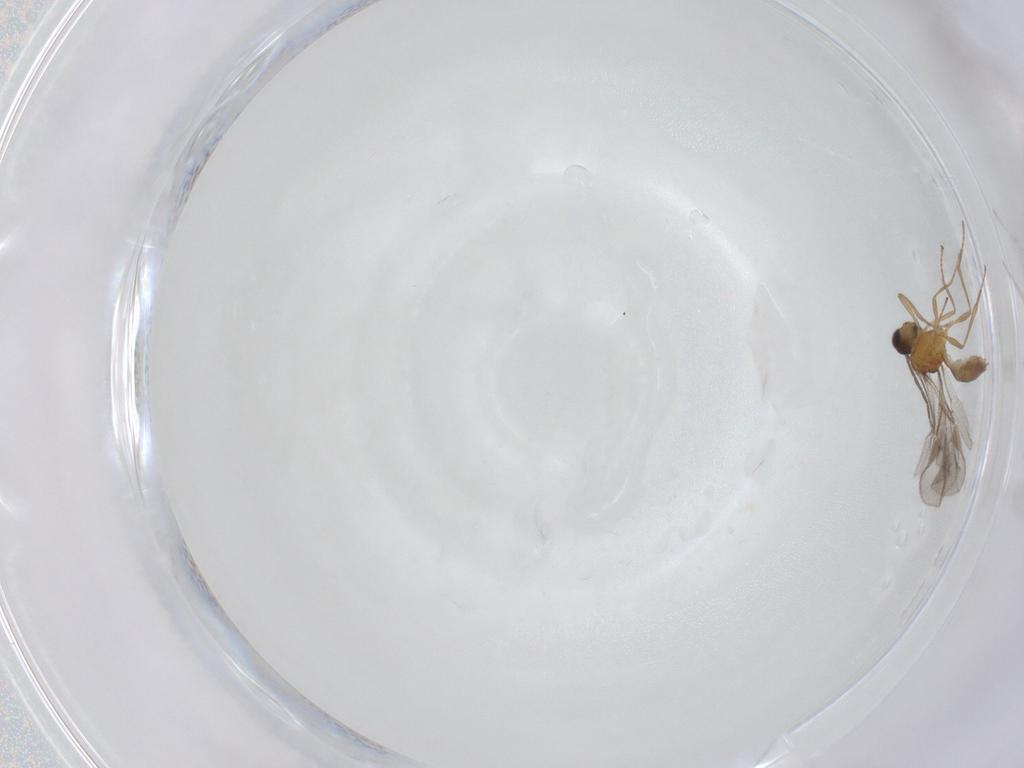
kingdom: Animalia
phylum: Arthropoda
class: Insecta
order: Hymenoptera
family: Braconidae
